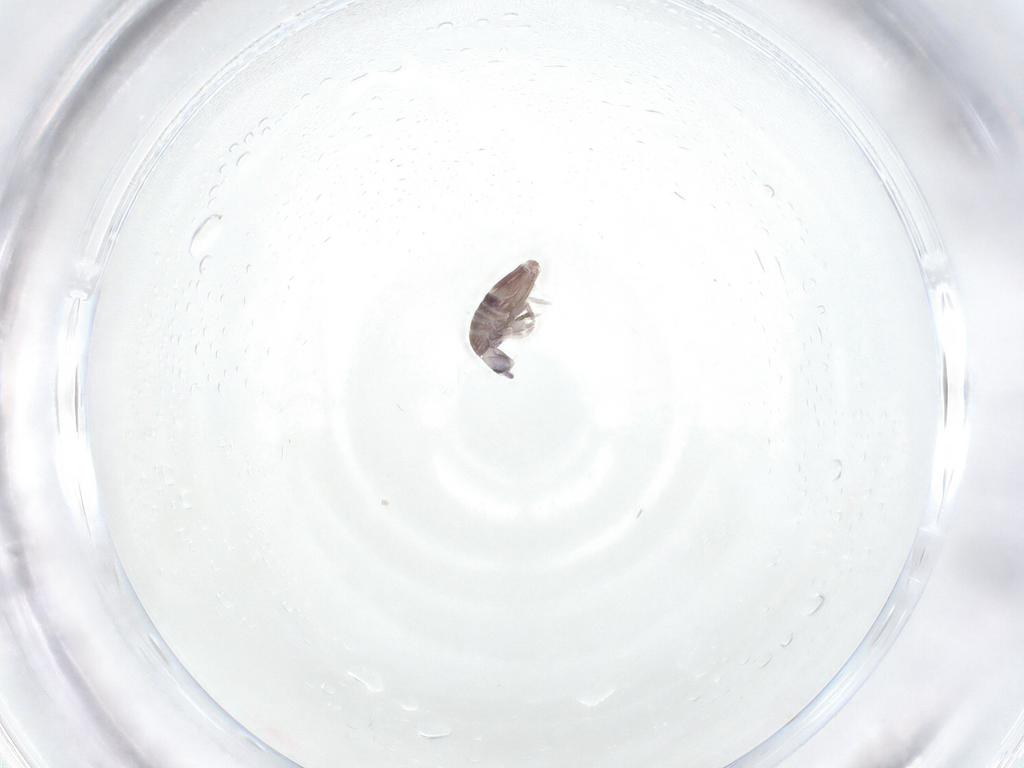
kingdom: Animalia
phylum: Arthropoda
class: Collembola
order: Entomobryomorpha
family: Entomobryidae
